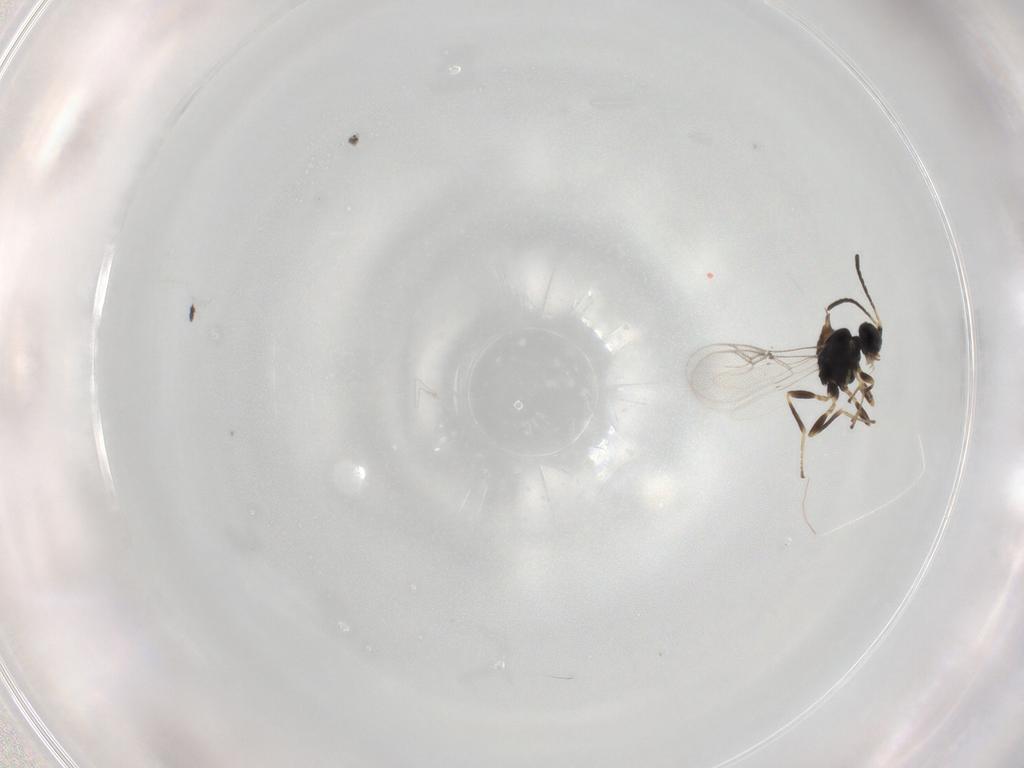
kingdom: Animalia
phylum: Arthropoda
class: Insecta
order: Hymenoptera
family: Braconidae
